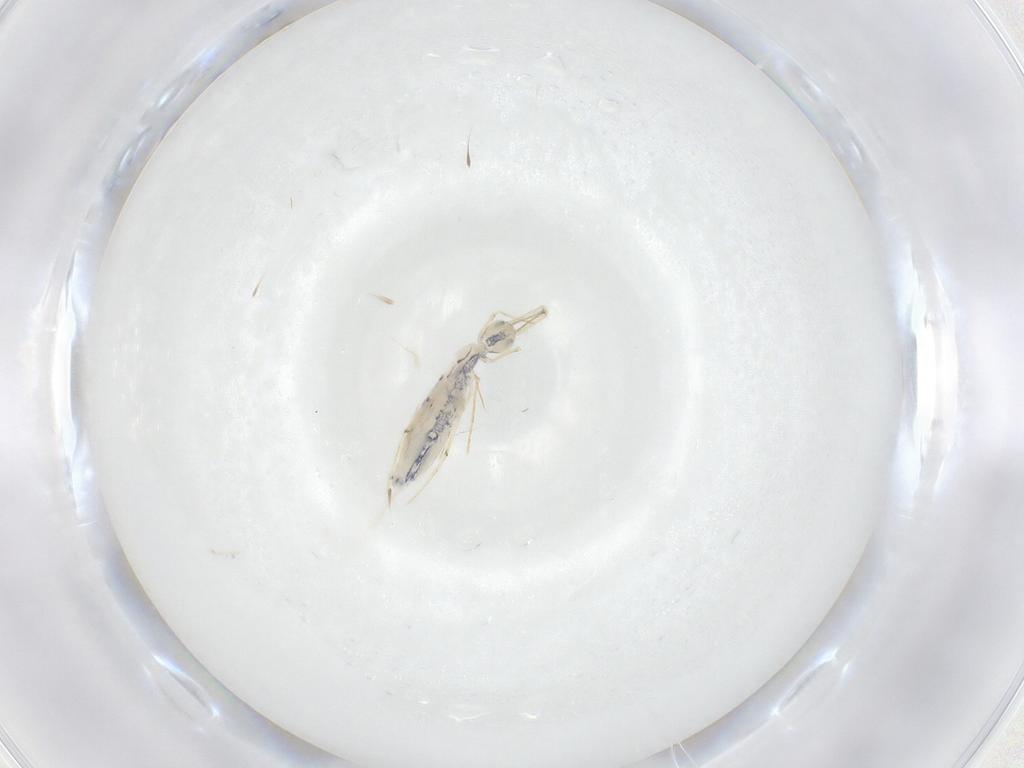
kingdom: Animalia
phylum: Arthropoda
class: Collembola
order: Entomobryomorpha
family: Entomobryidae
